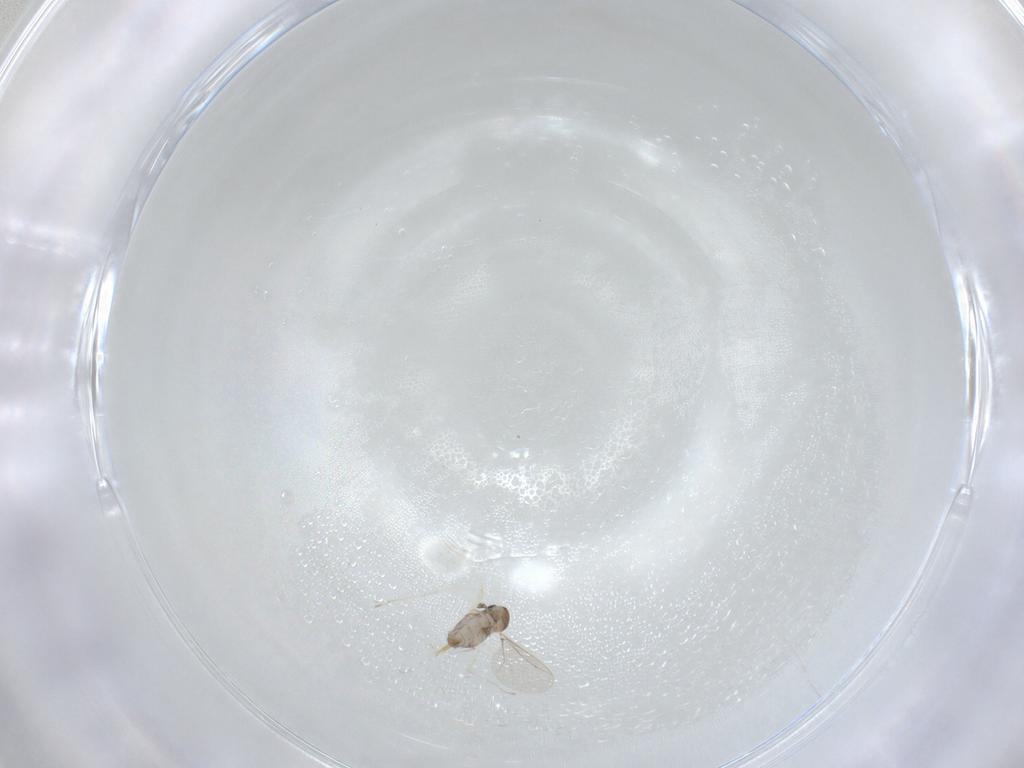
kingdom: Animalia
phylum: Arthropoda
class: Insecta
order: Diptera
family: Cecidomyiidae
